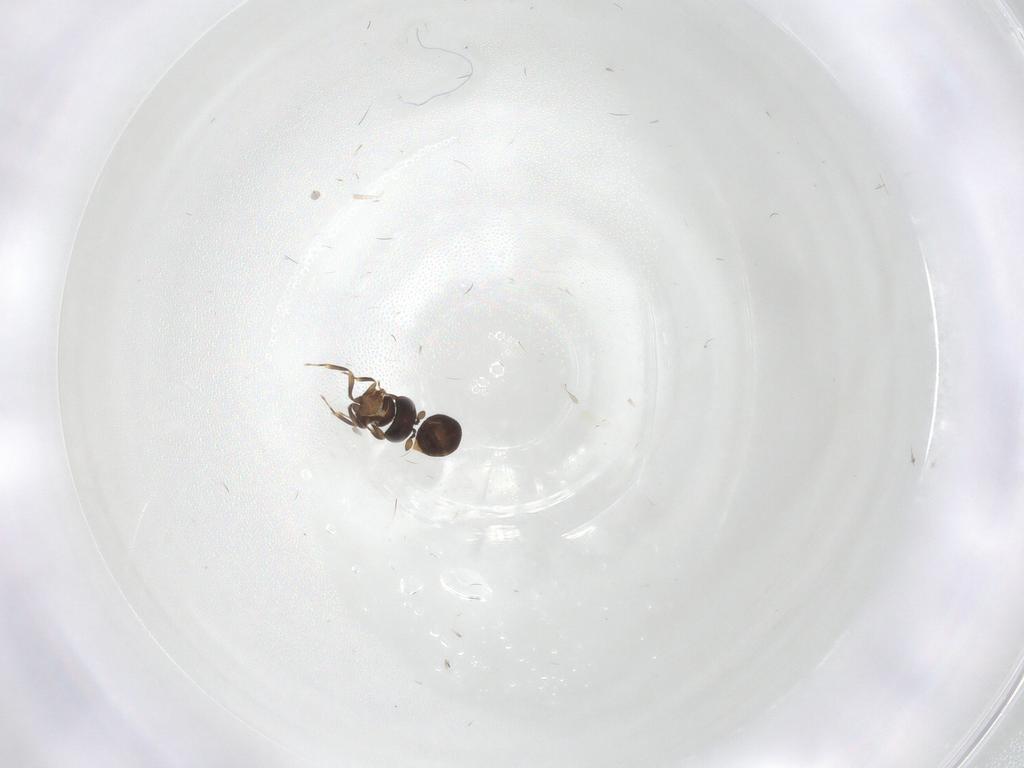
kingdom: Animalia
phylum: Arthropoda
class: Insecta
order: Hymenoptera
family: Scelionidae
